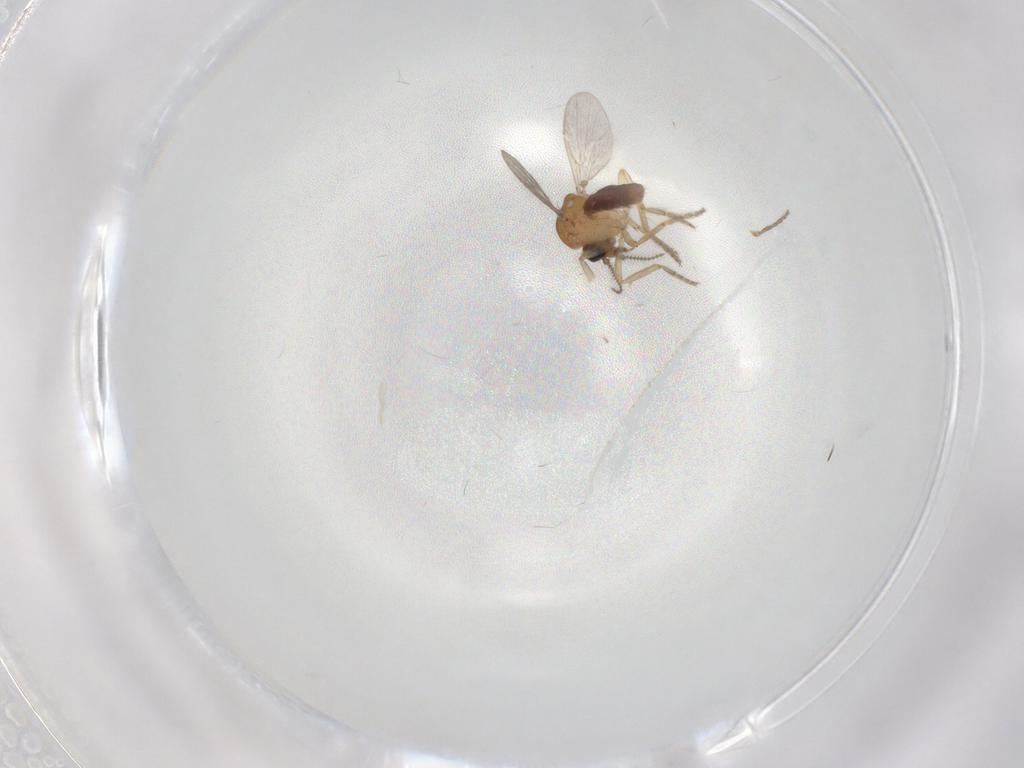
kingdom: Animalia
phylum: Arthropoda
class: Insecta
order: Diptera
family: Ceratopogonidae
